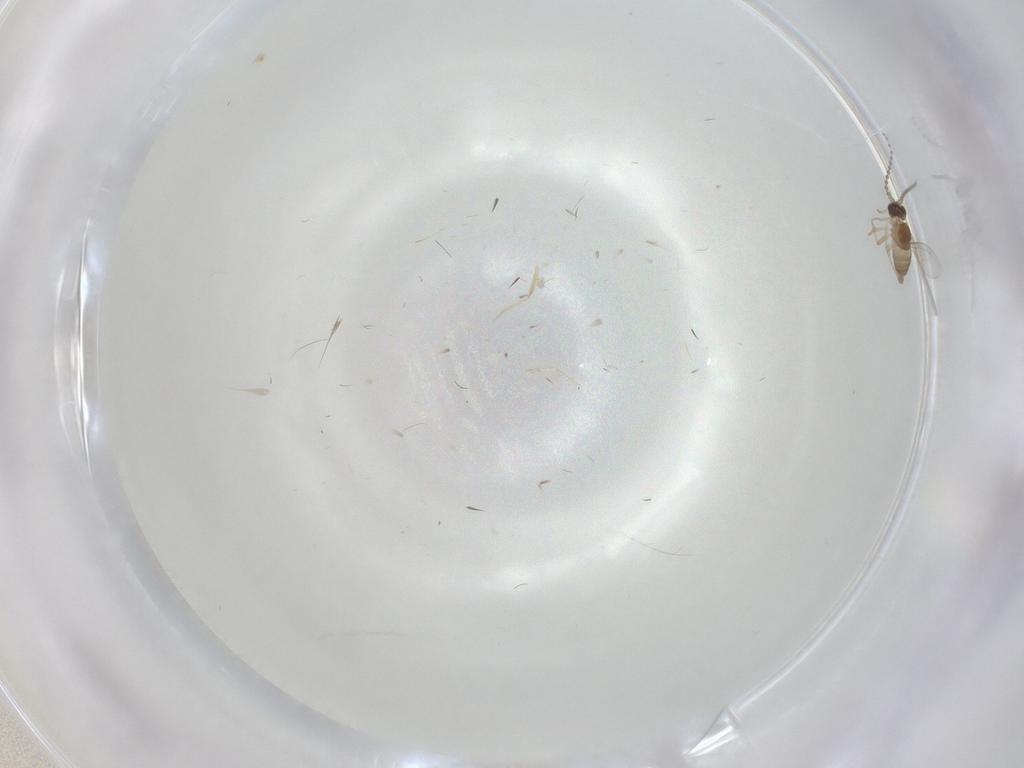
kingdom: Animalia
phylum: Arthropoda
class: Insecta
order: Diptera
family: Cecidomyiidae
